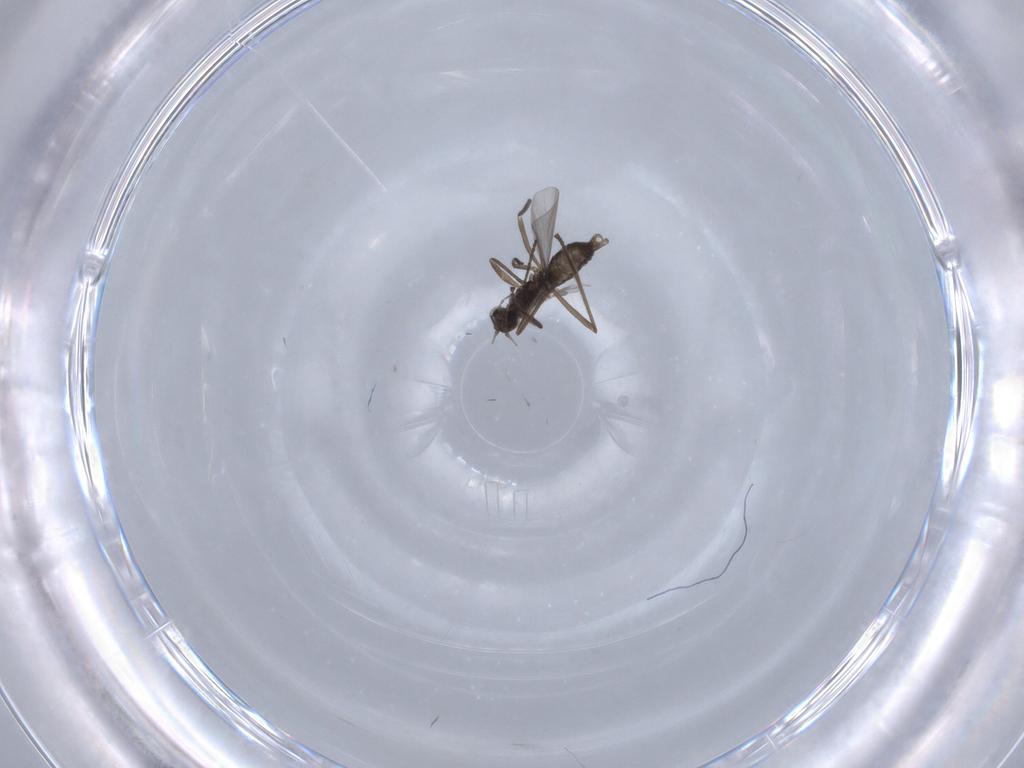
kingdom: Animalia
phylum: Arthropoda
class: Insecta
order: Diptera
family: Cecidomyiidae
